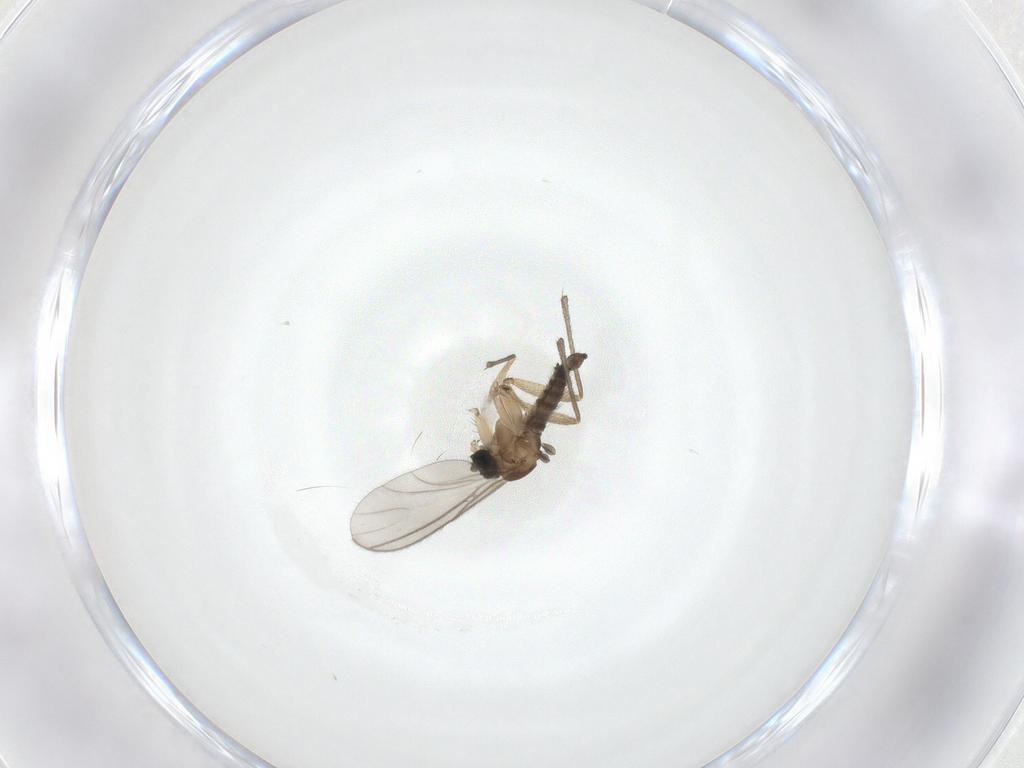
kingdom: Animalia
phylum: Arthropoda
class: Insecta
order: Diptera
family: Sciaridae
